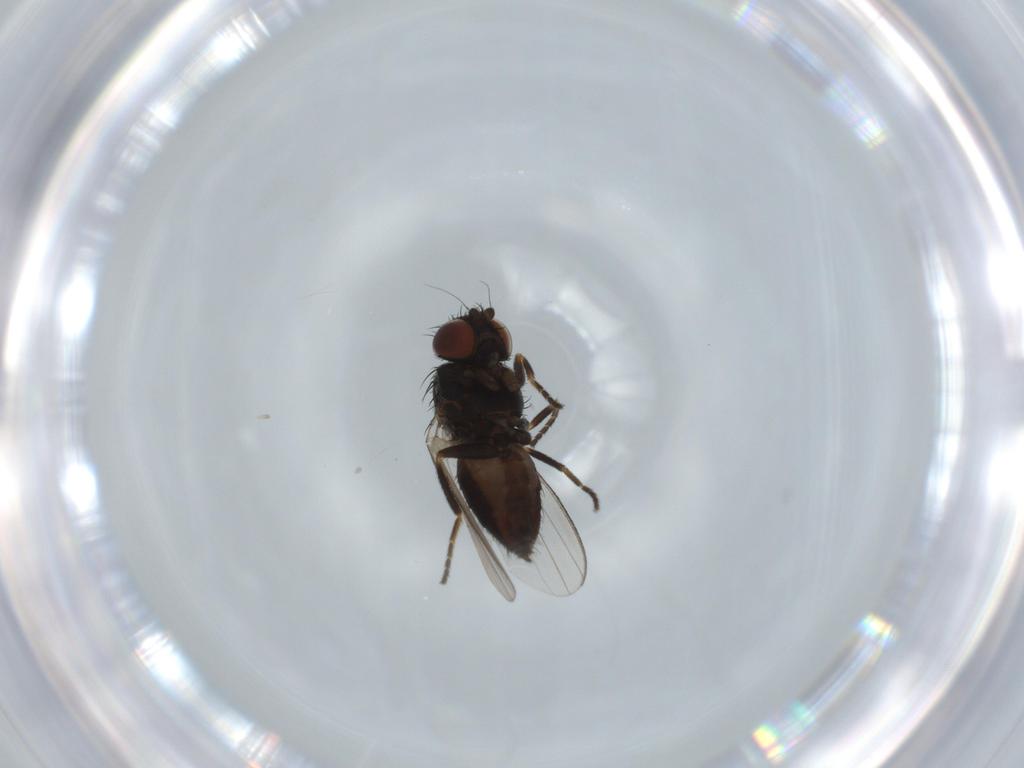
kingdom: Animalia
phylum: Arthropoda
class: Insecta
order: Diptera
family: Milichiidae
